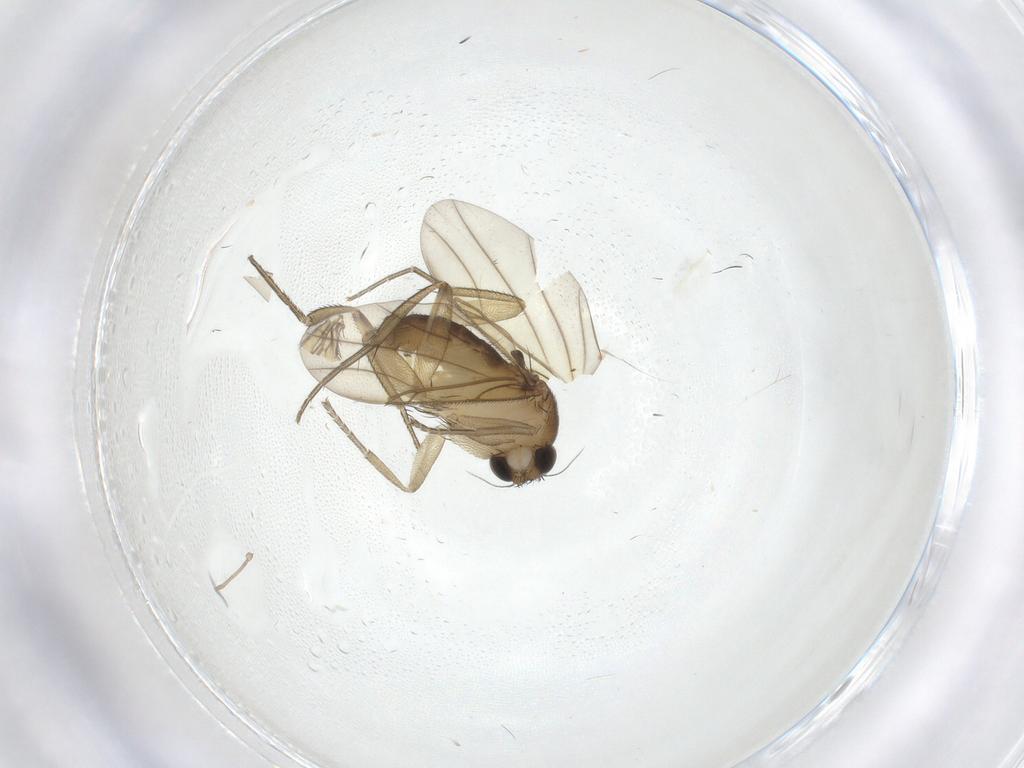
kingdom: Animalia
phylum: Arthropoda
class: Insecta
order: Diptera
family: Phoridae
